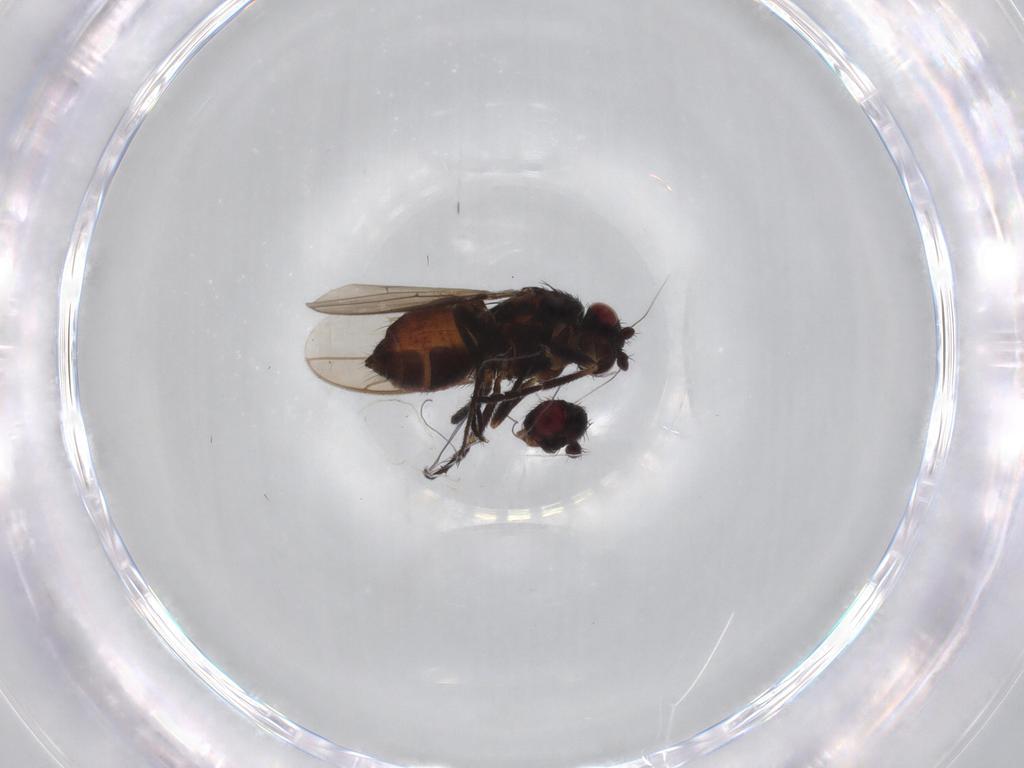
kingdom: Animalia
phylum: Arthropoda
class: Insecta
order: Diptera
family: Sphaeroceridae
